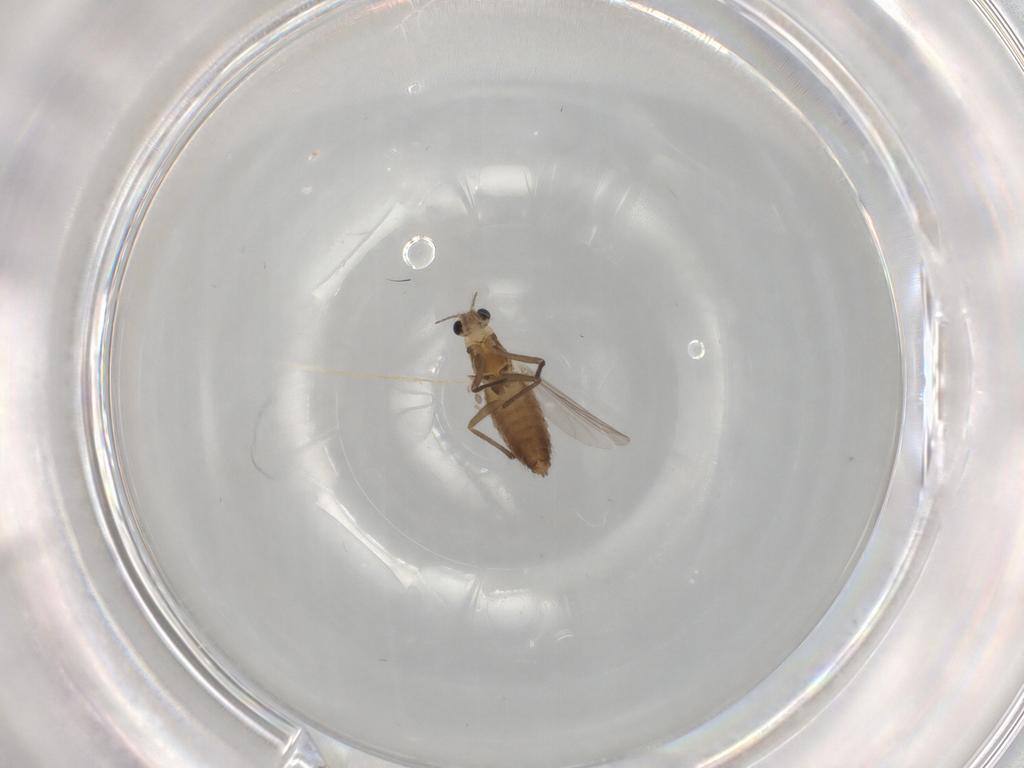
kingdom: Animalia
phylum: Arthropoda
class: Insecta
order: Diptera
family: Chironomidae
